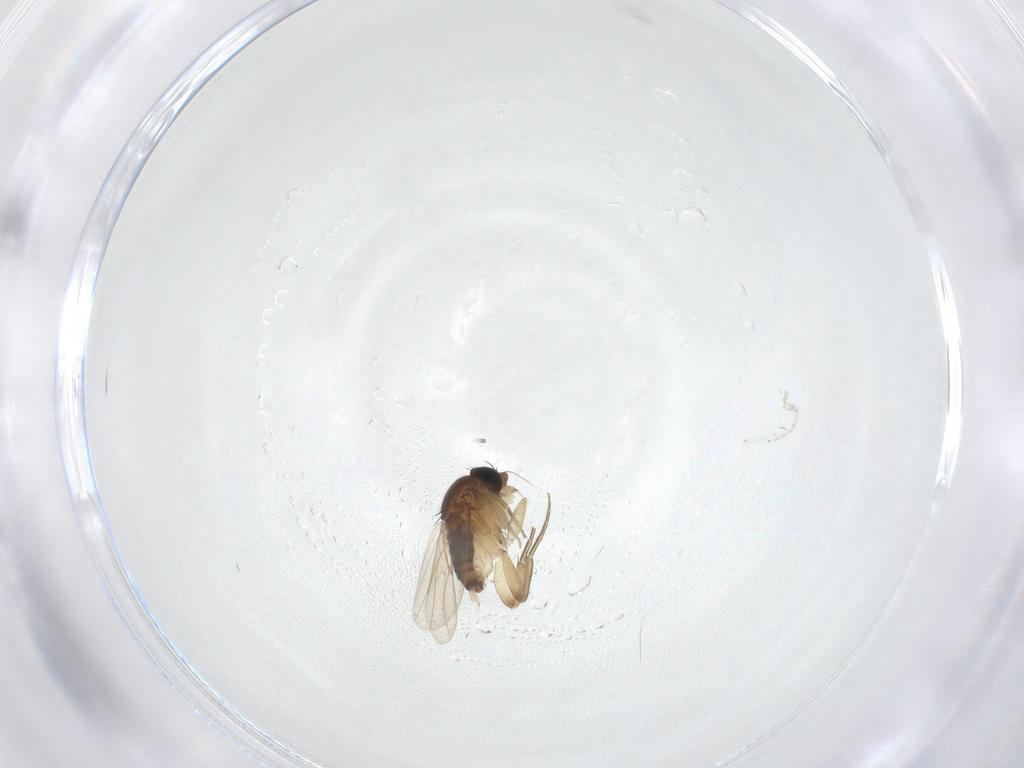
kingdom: Animalia
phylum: Arthropoda
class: Insecta
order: Diptera
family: Phoridae
